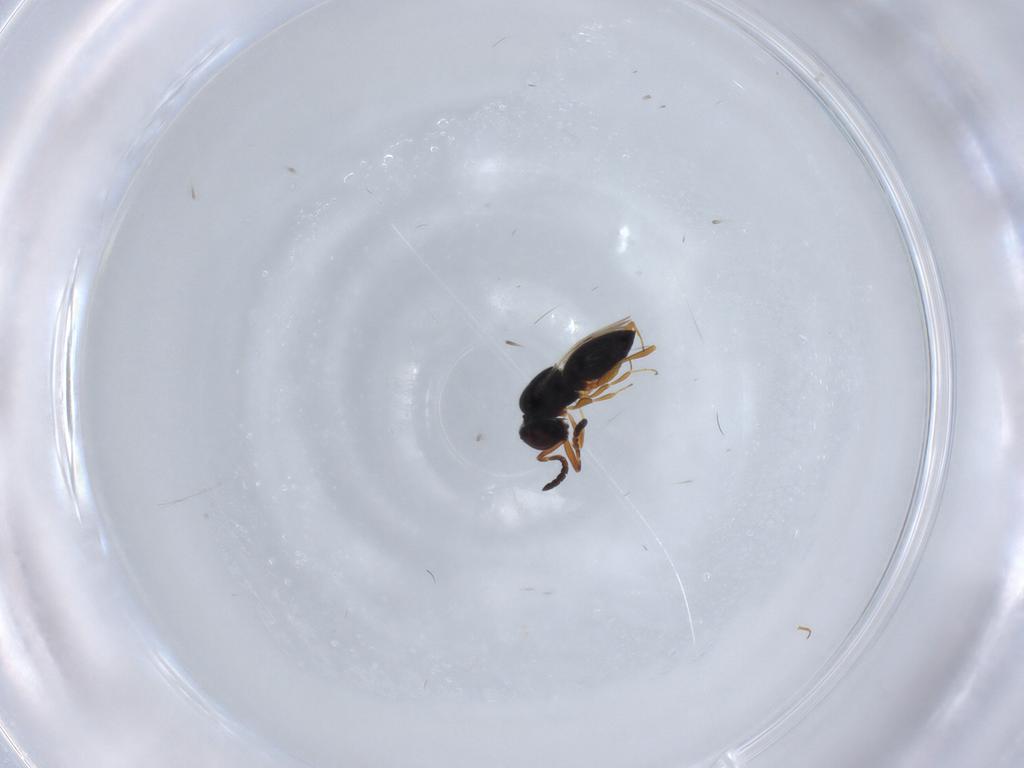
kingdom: Animalia
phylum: Arthropoda
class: Insecta
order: Hymenoptera
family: Ceraphronidae
